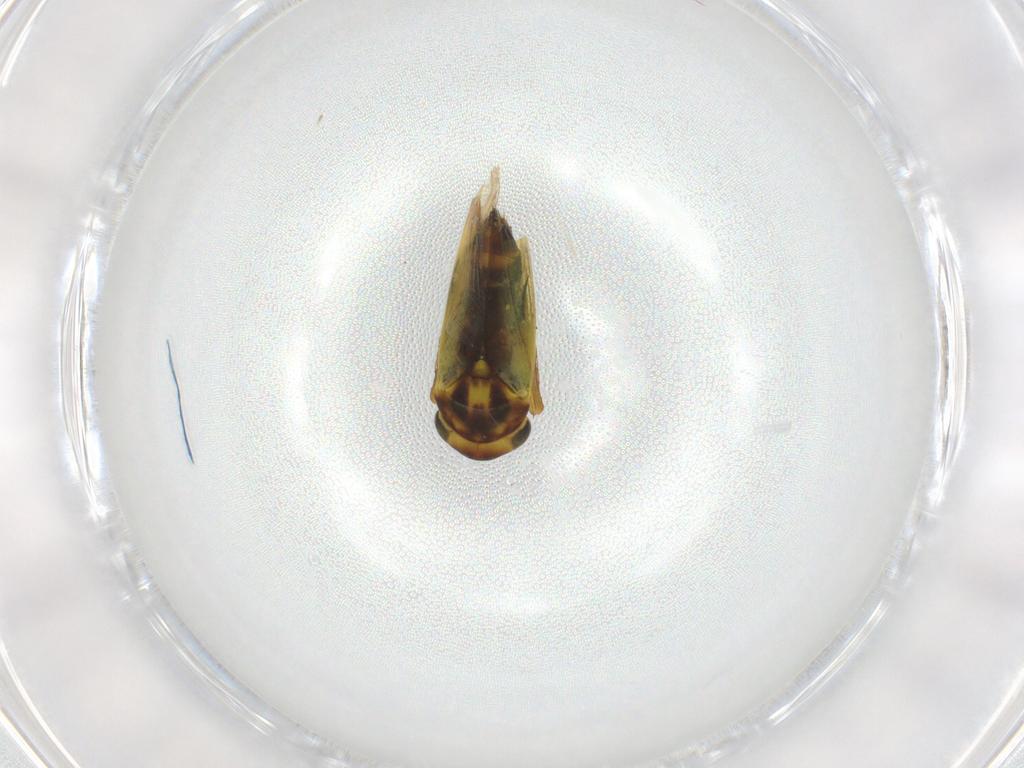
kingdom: Animalia
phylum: Arthropoda
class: Insecta
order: Hemiptera
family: Cicadellidae
